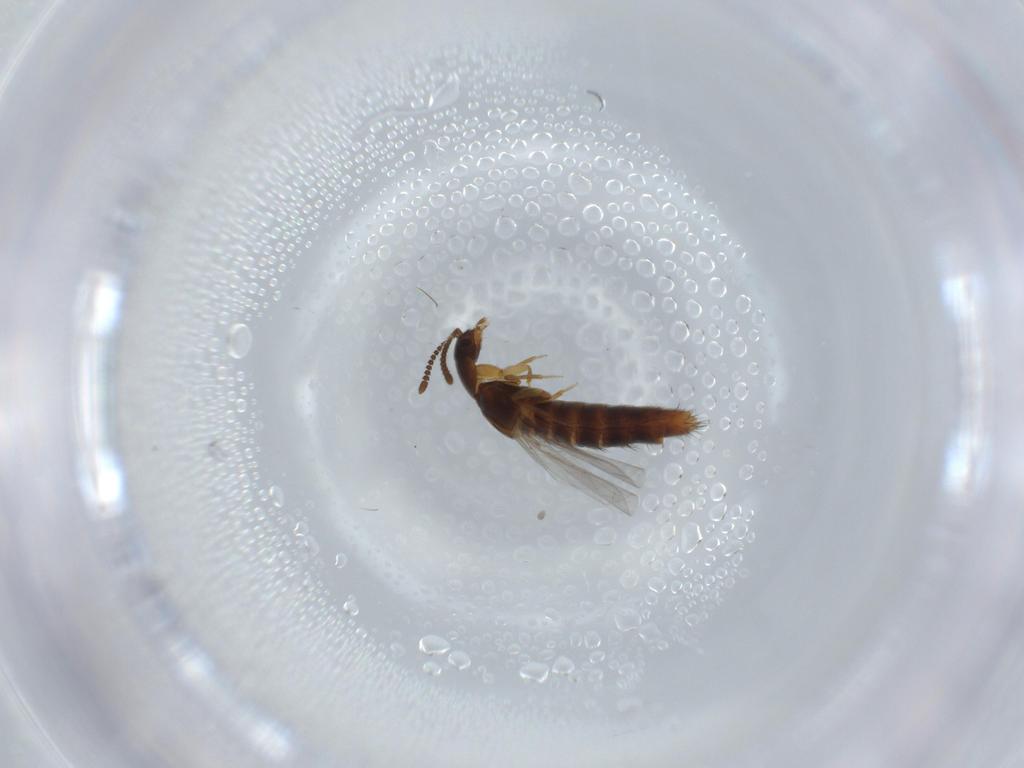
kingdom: Animalia
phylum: Arthropoda
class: Insecta
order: Coleoptera
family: Staphylinidae
